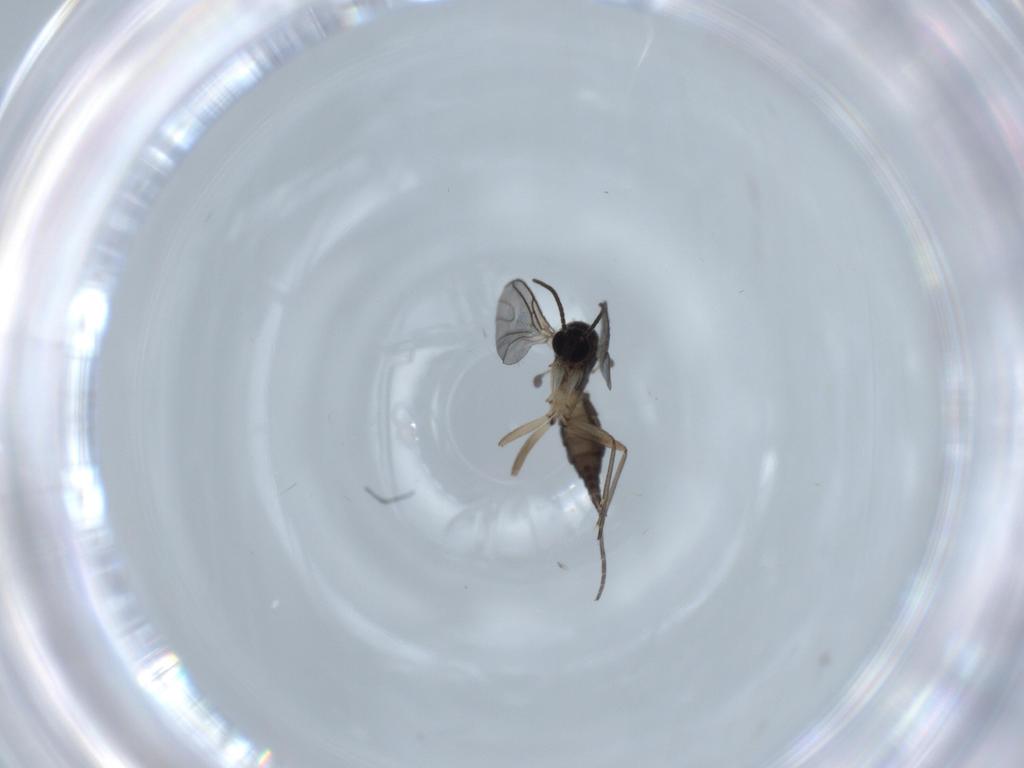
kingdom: Animalia
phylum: Arthropoda
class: Insecta
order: Diptera
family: Sciaridae
